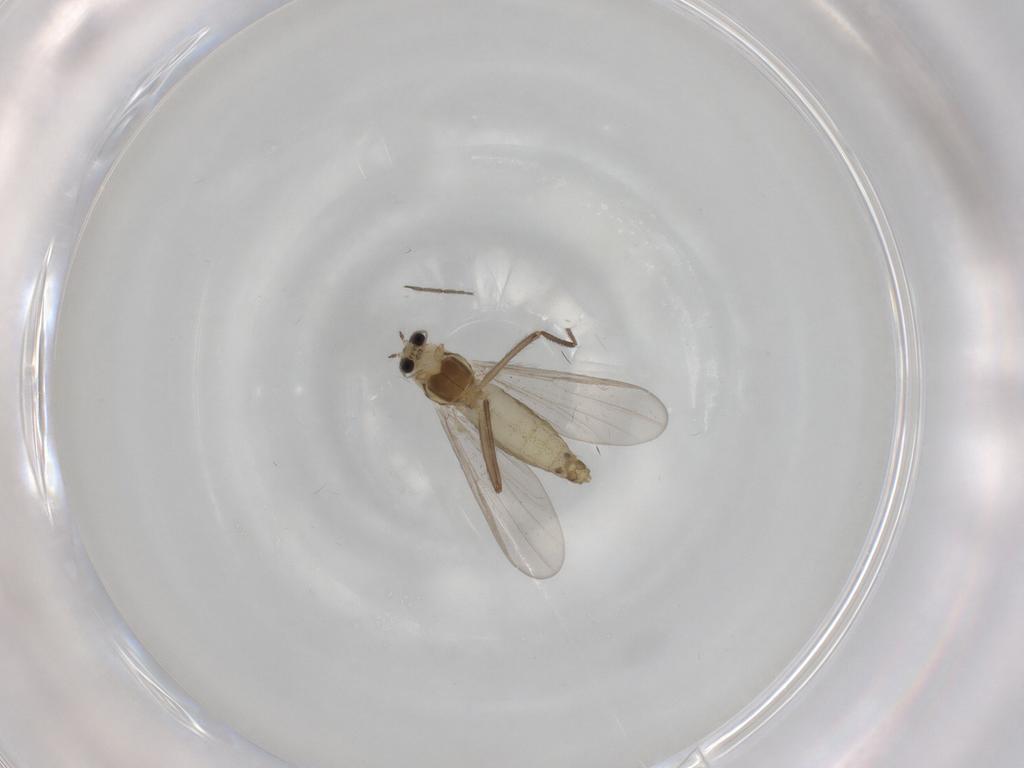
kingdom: Animalia
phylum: Arthropoda
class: Insecta
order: Diptera
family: Chironomidae
